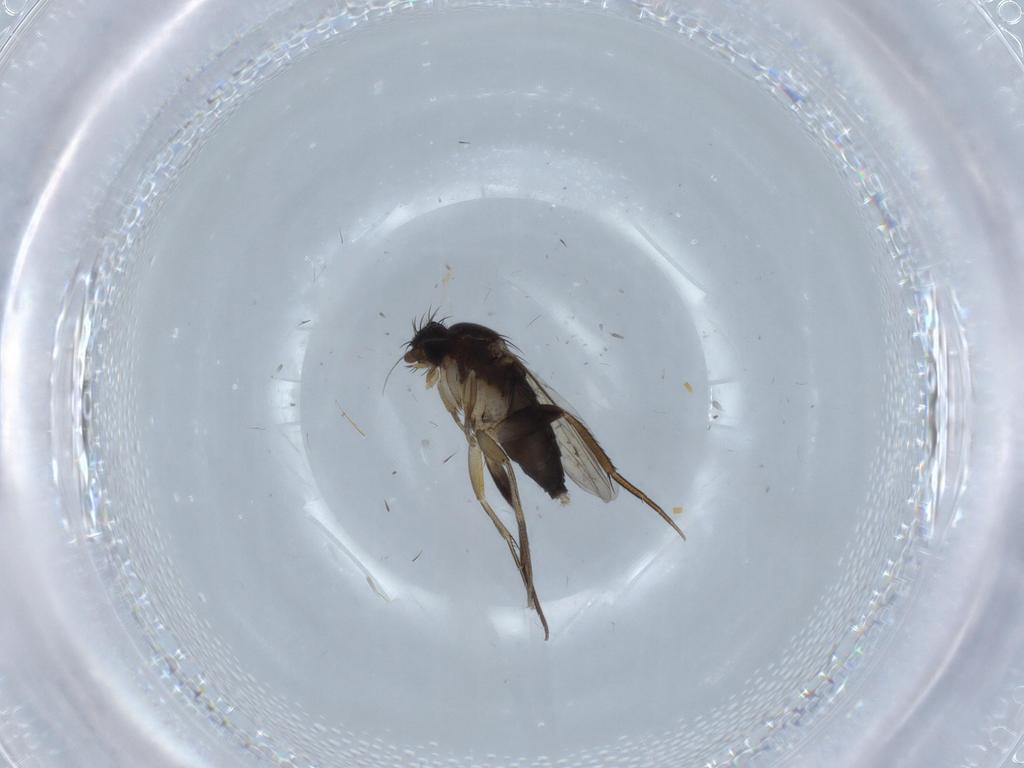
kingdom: Animalia
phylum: Arthropoda
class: Insecta
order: Diptera
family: Phoridae
